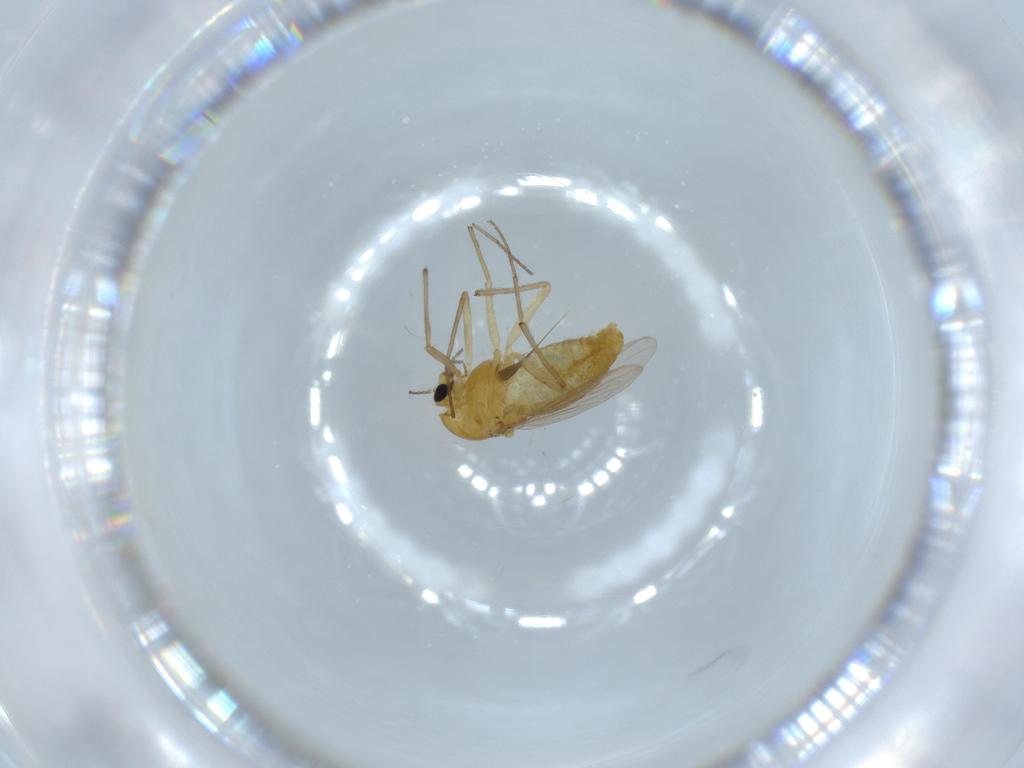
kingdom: Animalia
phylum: Arthropoda
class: Insecta
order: Diptera
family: Chironomidae
